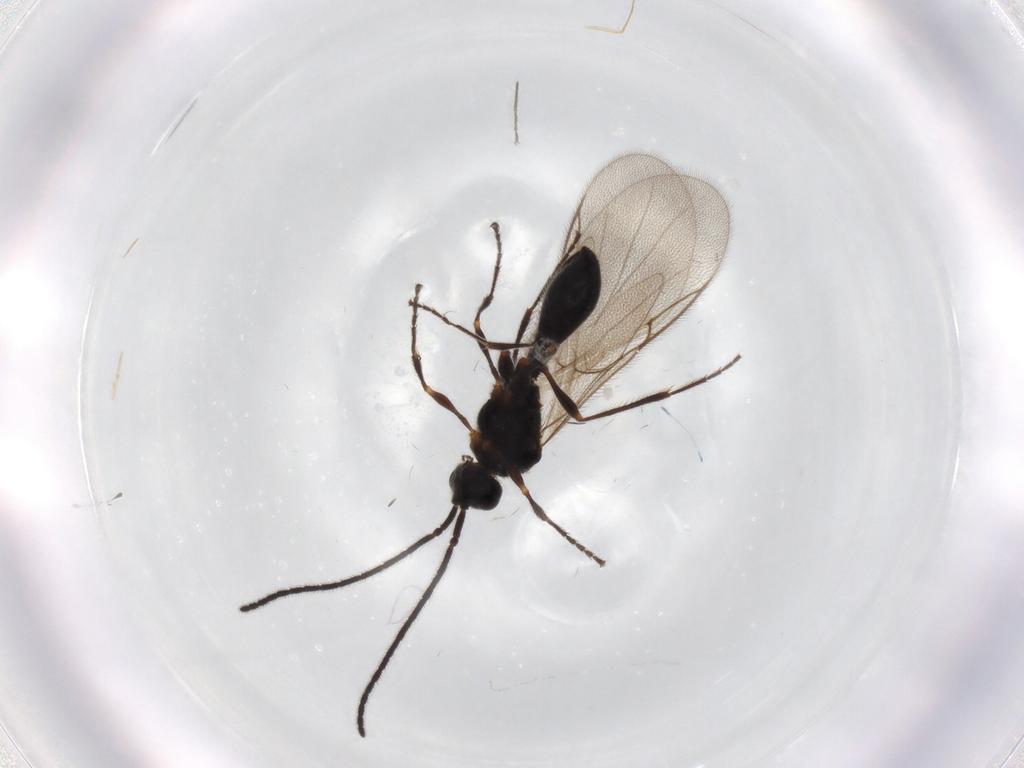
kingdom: Animalia
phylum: Arthropoda
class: Insecta
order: Hymenoptera
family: Diapriidae
